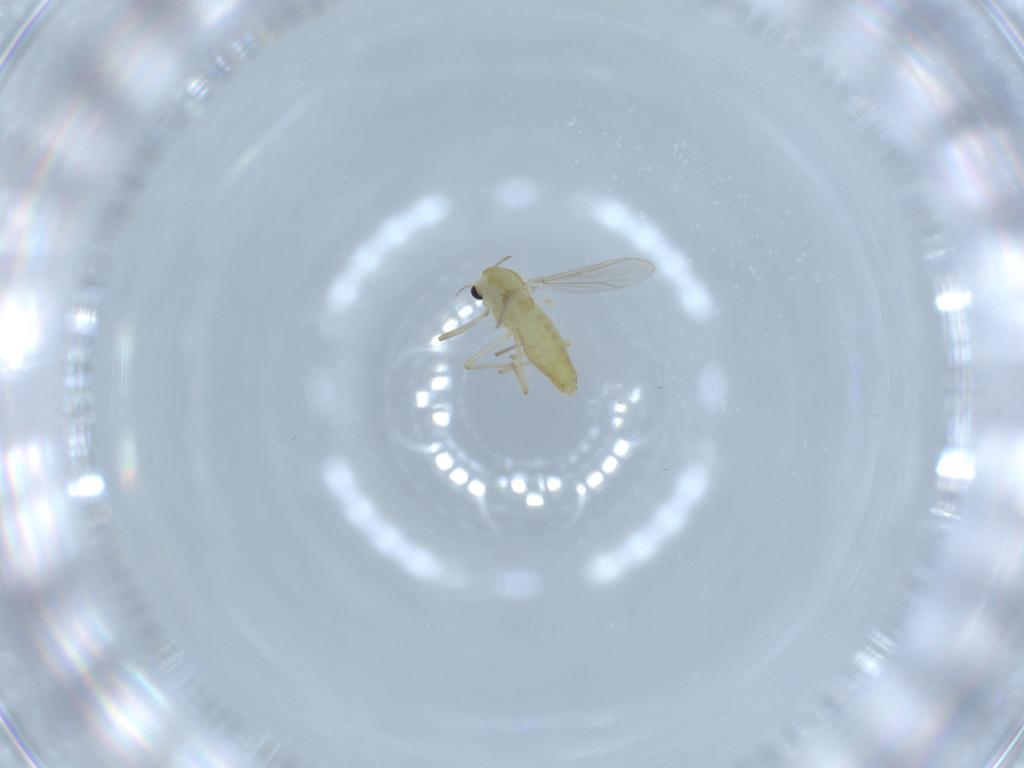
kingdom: Animalia
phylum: Arthropoda
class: Insecta
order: Diptera
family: Chironomidae
